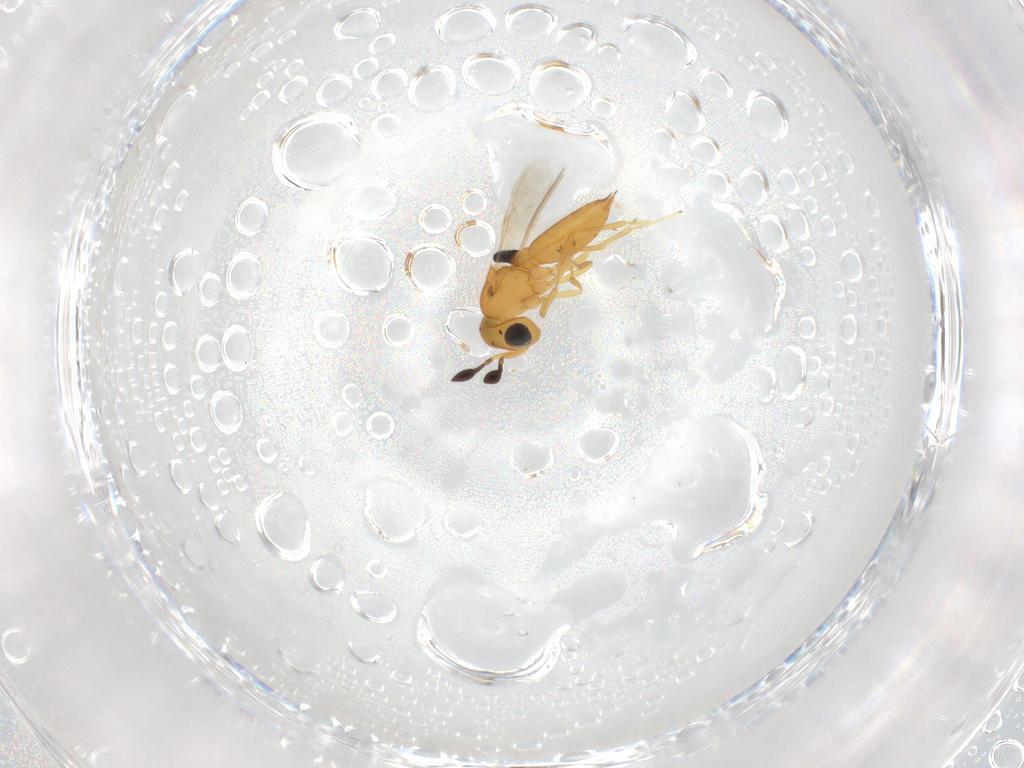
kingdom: Animalia
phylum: Arthropoda
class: Insecta
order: Hymenoptera
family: Scelionidae
